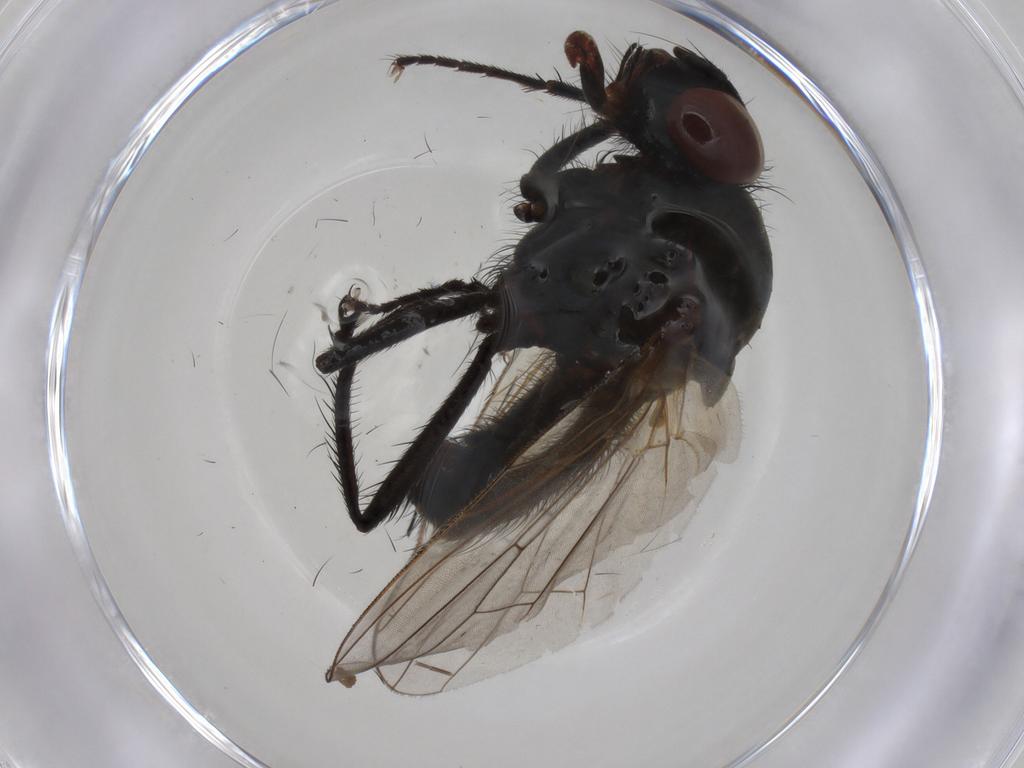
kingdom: Animalia
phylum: Arthropoda
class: Insecta
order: Diptera
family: Anthomyiidae
